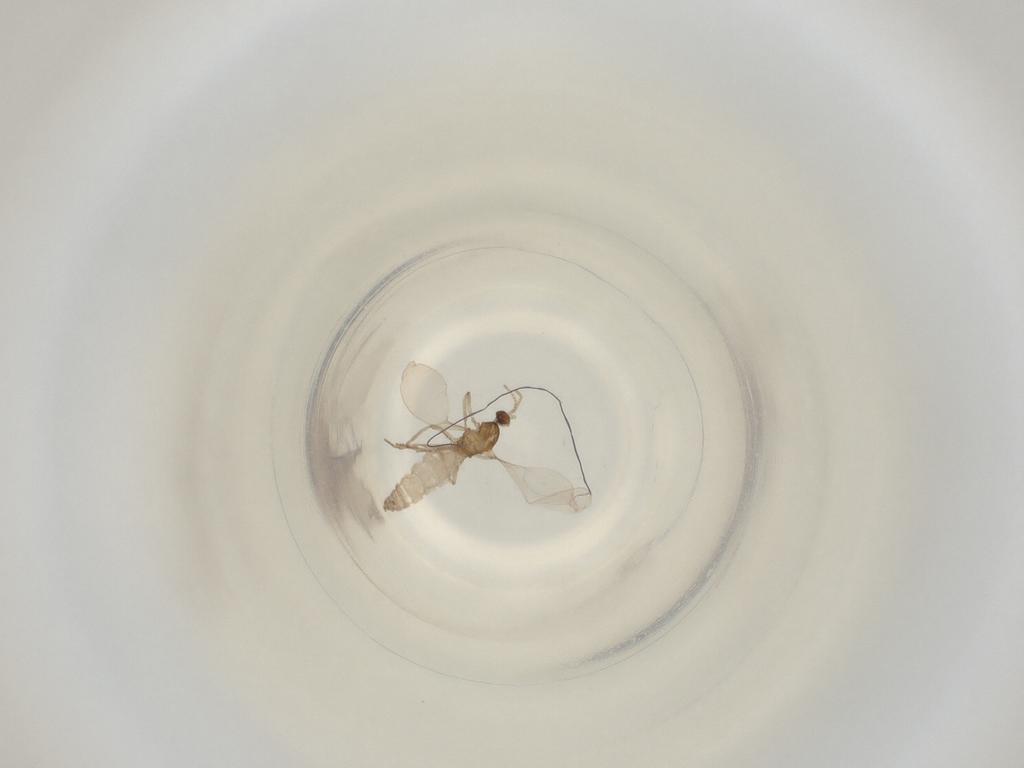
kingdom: Animalia
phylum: Arthropoda
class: Insecta
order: Diptera
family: Cecidomyiidae
